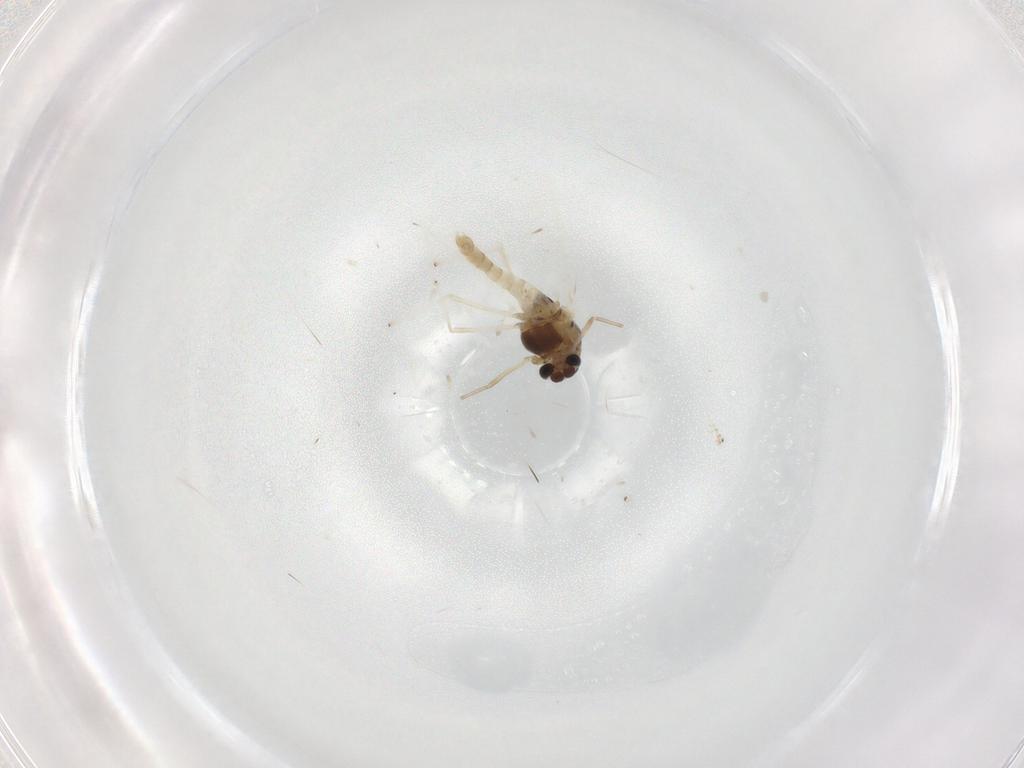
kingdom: Animalia
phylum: Arthropoda
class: Insecta
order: Diptera
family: Chironomidae
